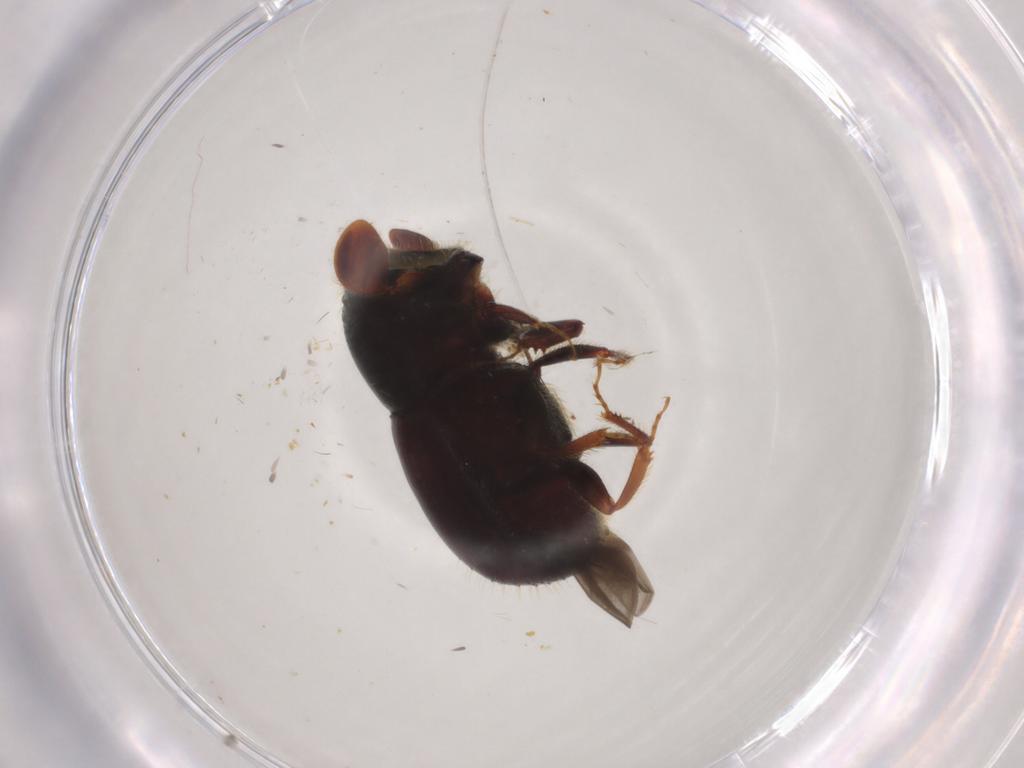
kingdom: Animalia
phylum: Arthropoda
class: Insecta
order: Coleoptera
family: Curculionidae
